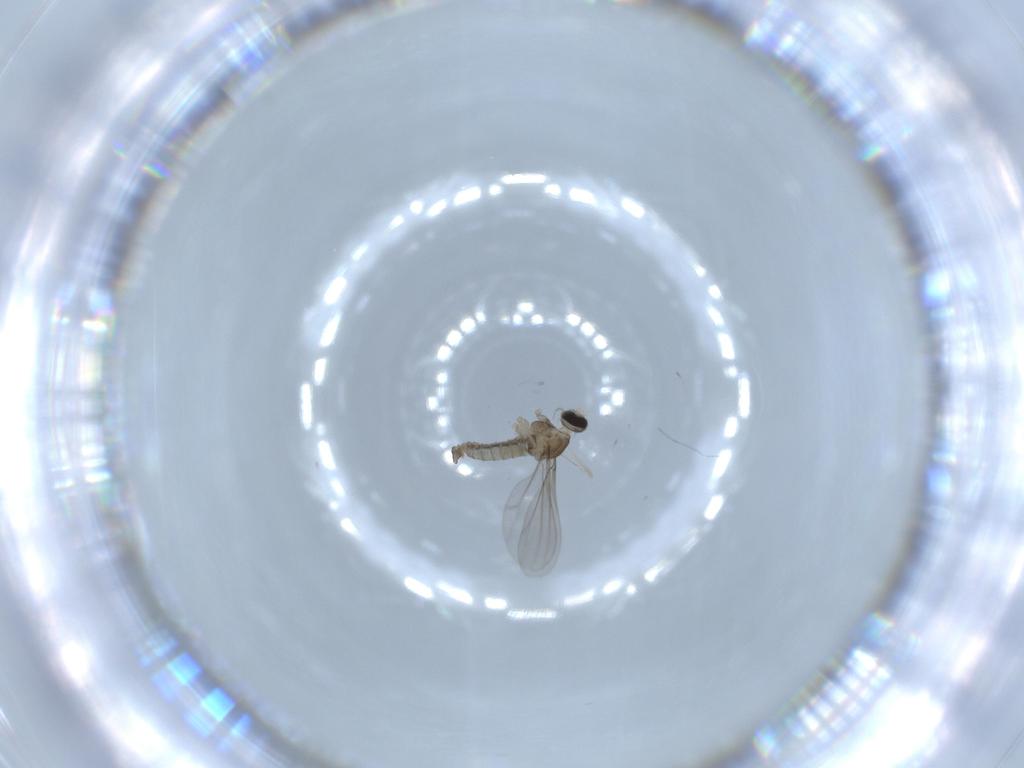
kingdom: Animalia
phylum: Arthropoda
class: Insecta
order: Diptera
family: Cecidomyiidae
